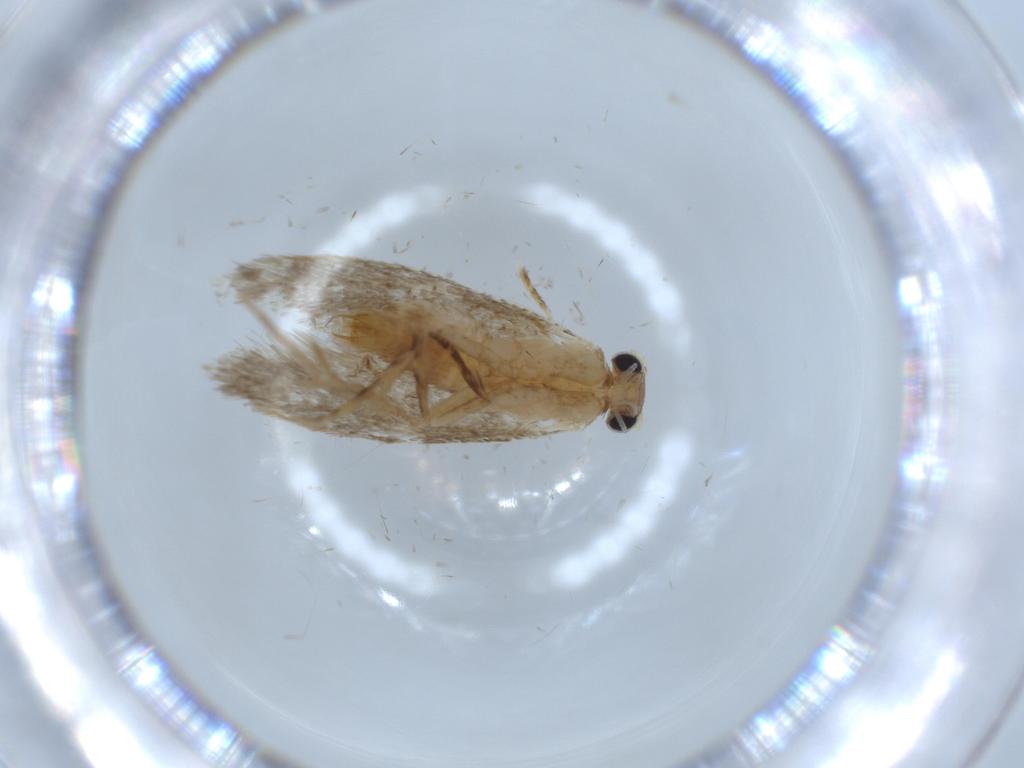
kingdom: Animalia
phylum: Arthropoda
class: Insecta
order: Lepidoptera
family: Tineidae
